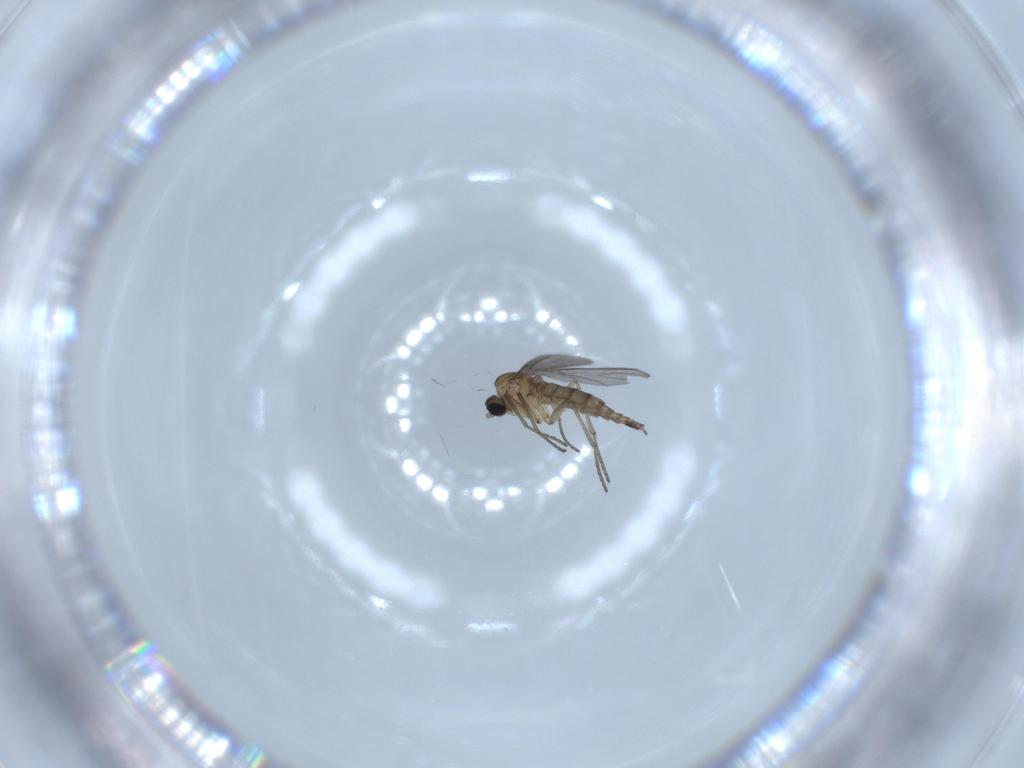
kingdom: Animalia
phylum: Arthropoda
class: Insecta
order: Diptera
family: Sciaridae
